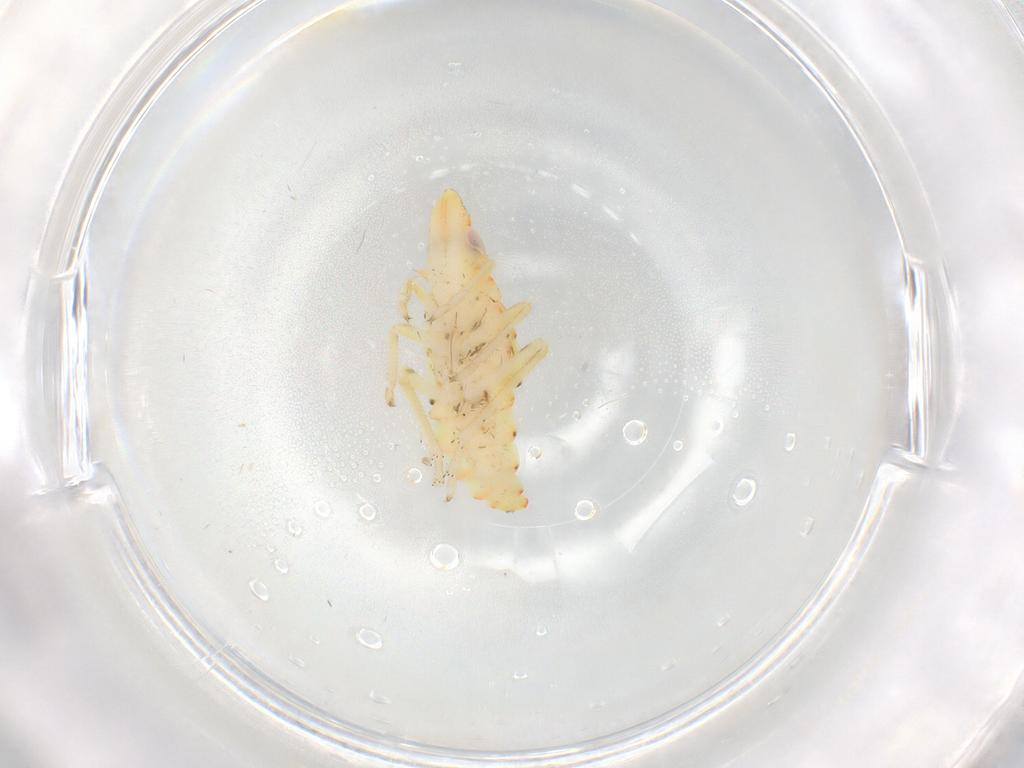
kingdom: Animalia
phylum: Arthropoda
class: Insecta
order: Hemiptera
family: Tropiduchidae
